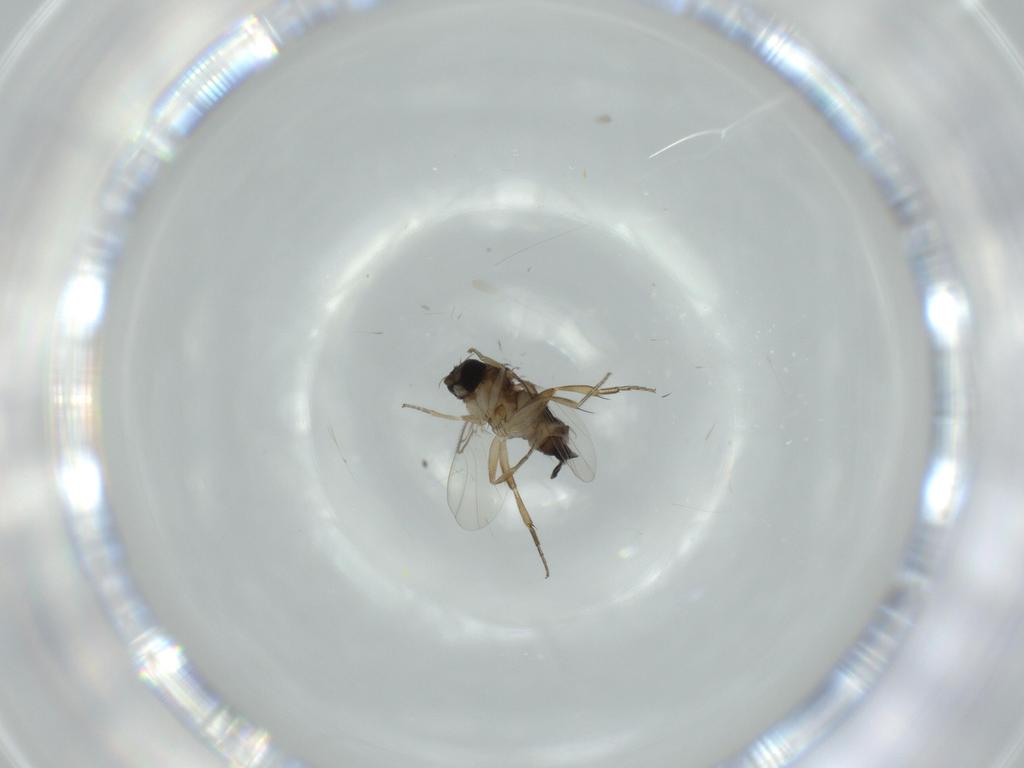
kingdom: Animalia
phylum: Arthropoda
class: Insecta
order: Diptera
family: Phoridae
